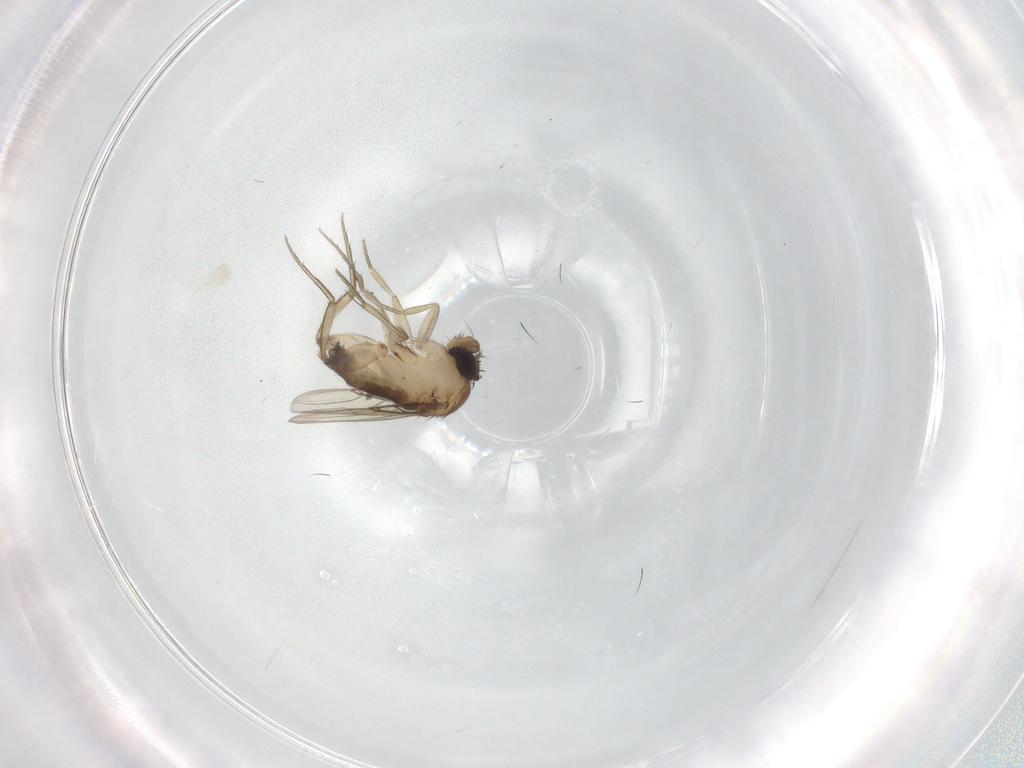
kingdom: Animalia
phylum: Arthropoda
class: Insecta
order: Diptera
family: Phoridae
